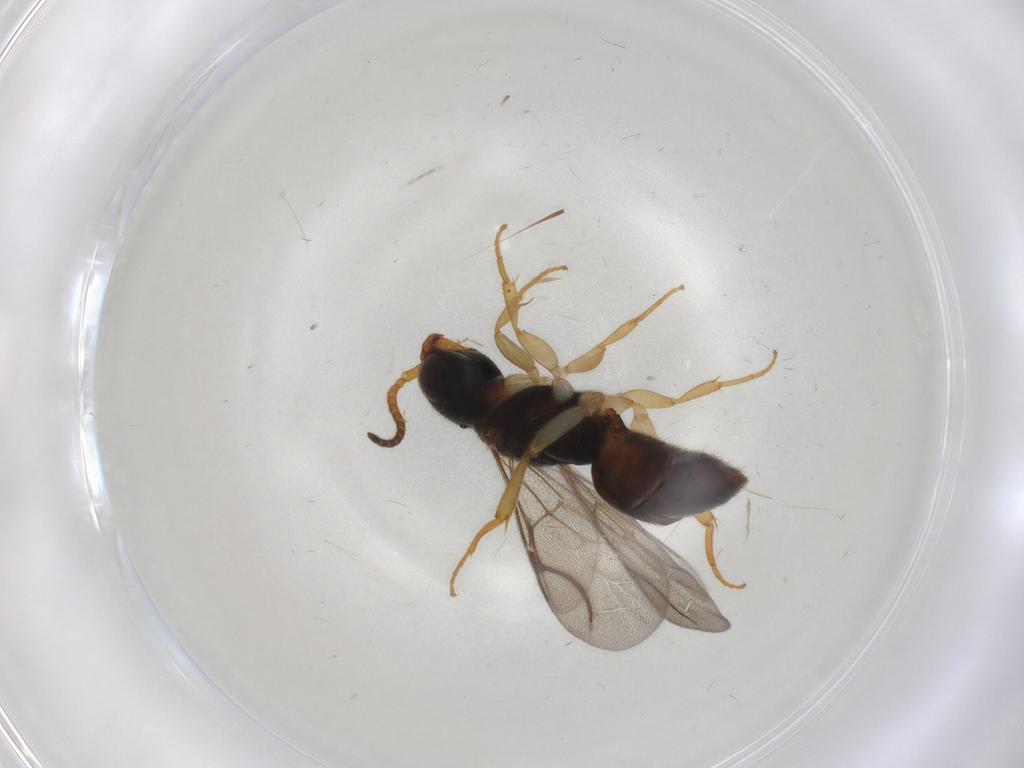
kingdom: Animalia
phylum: Arthropoda
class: Insecta
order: Hymenoptera
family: Bethylidae
